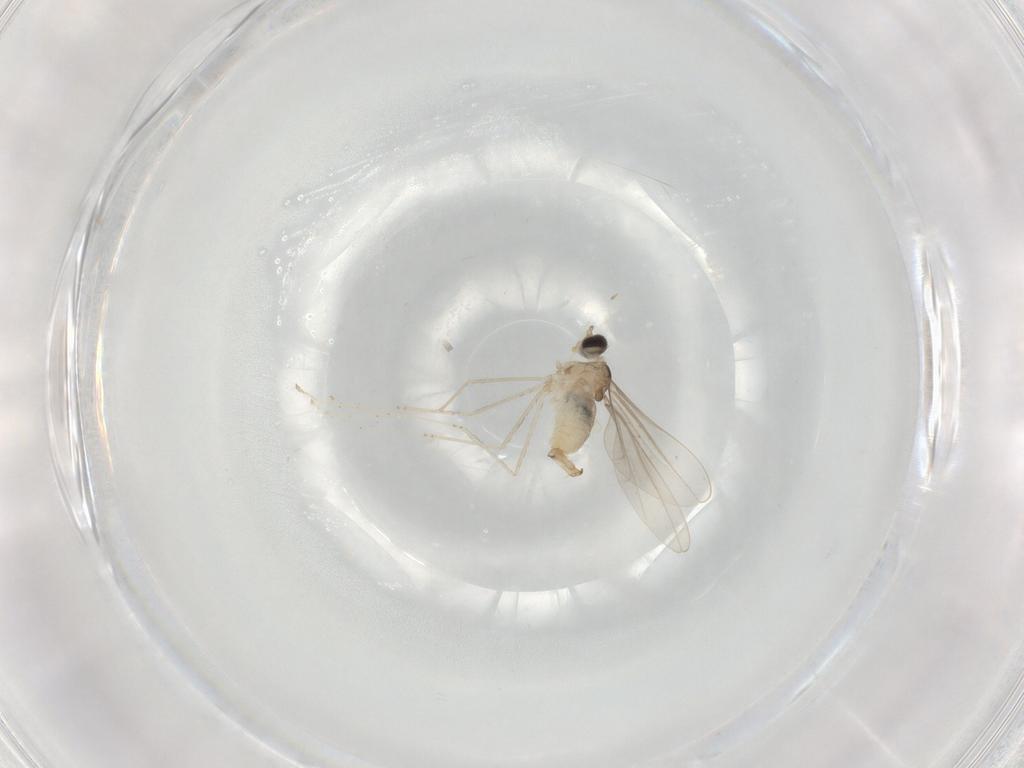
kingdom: Animalia
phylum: Arthropoda
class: Insecta
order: Diptera
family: Cecidomyiidae
